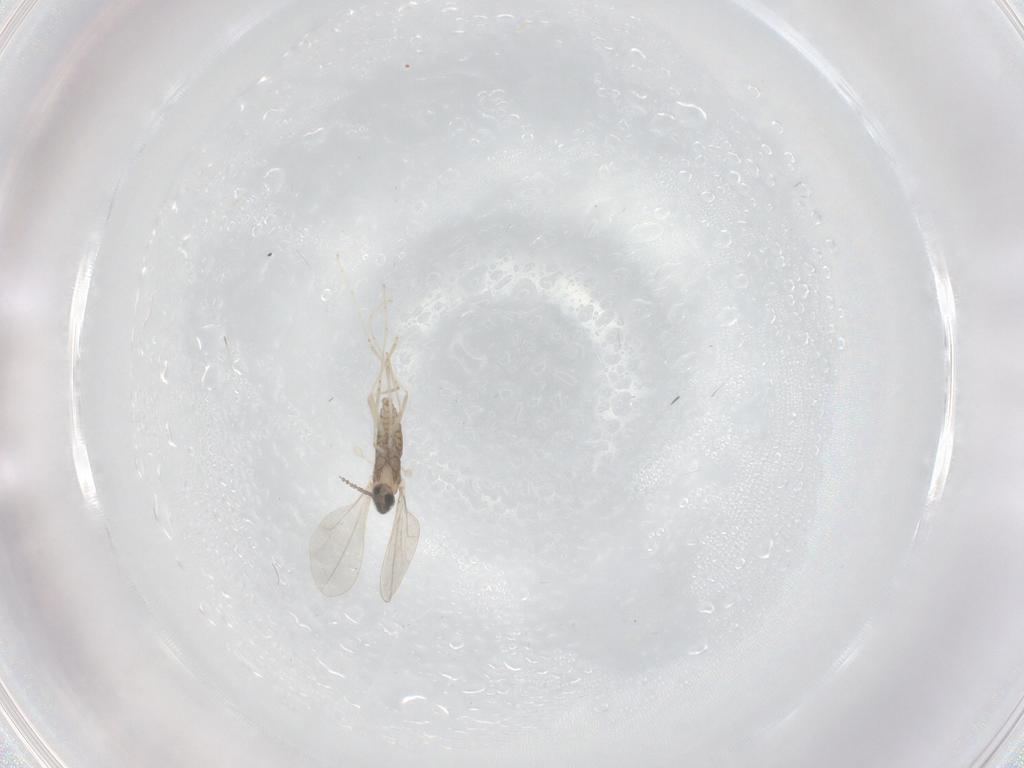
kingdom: Animalia
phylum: Arthropoda
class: Insecta
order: Diptera
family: Cecidomyiidae
